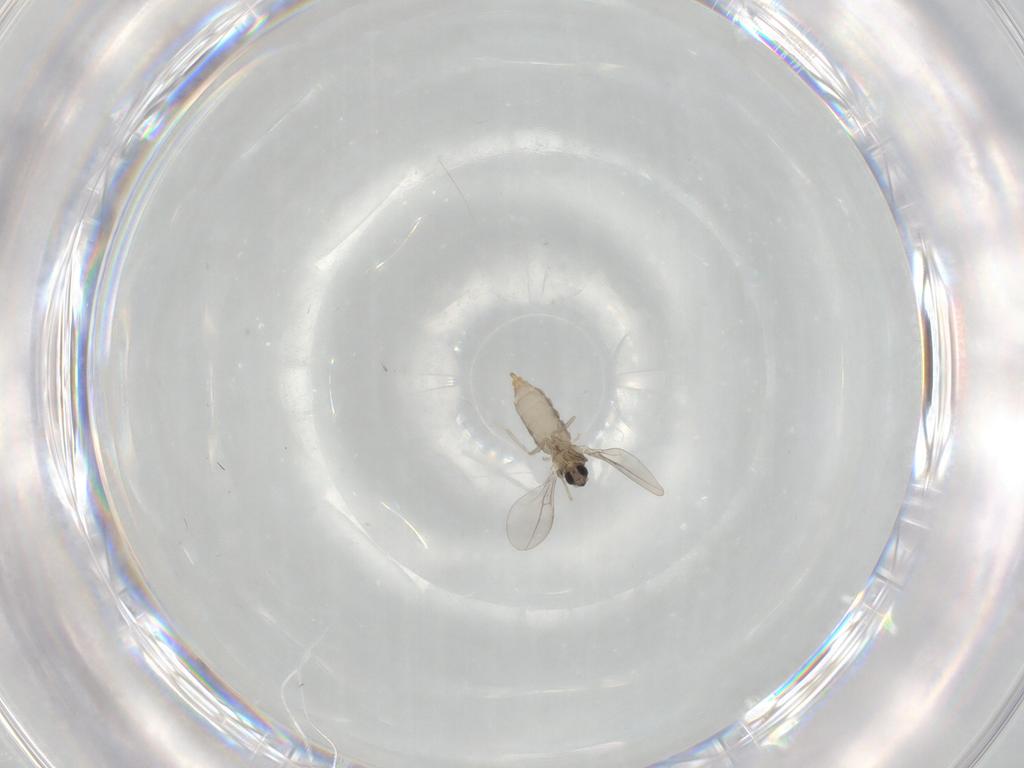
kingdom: Animalia
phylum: Arthropoda
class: Insecta
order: Diptera
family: Cecidomyiidae
